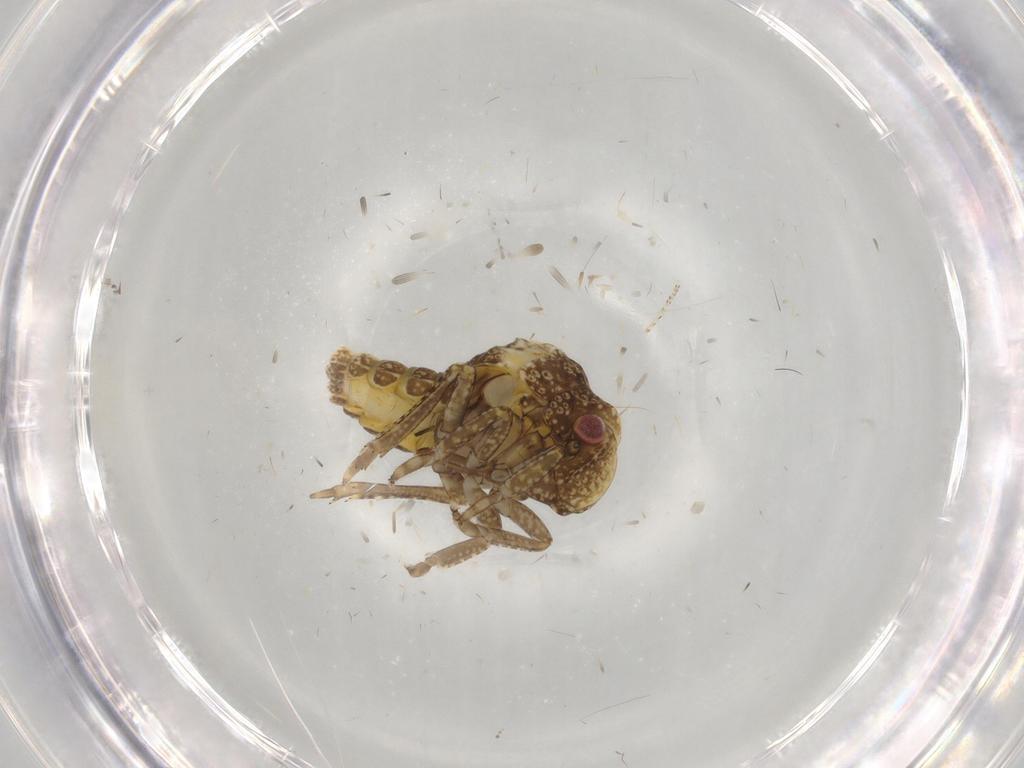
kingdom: Animalia
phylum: Arthropoda
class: Insecta
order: Hemiptera
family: Acanaloniidae
